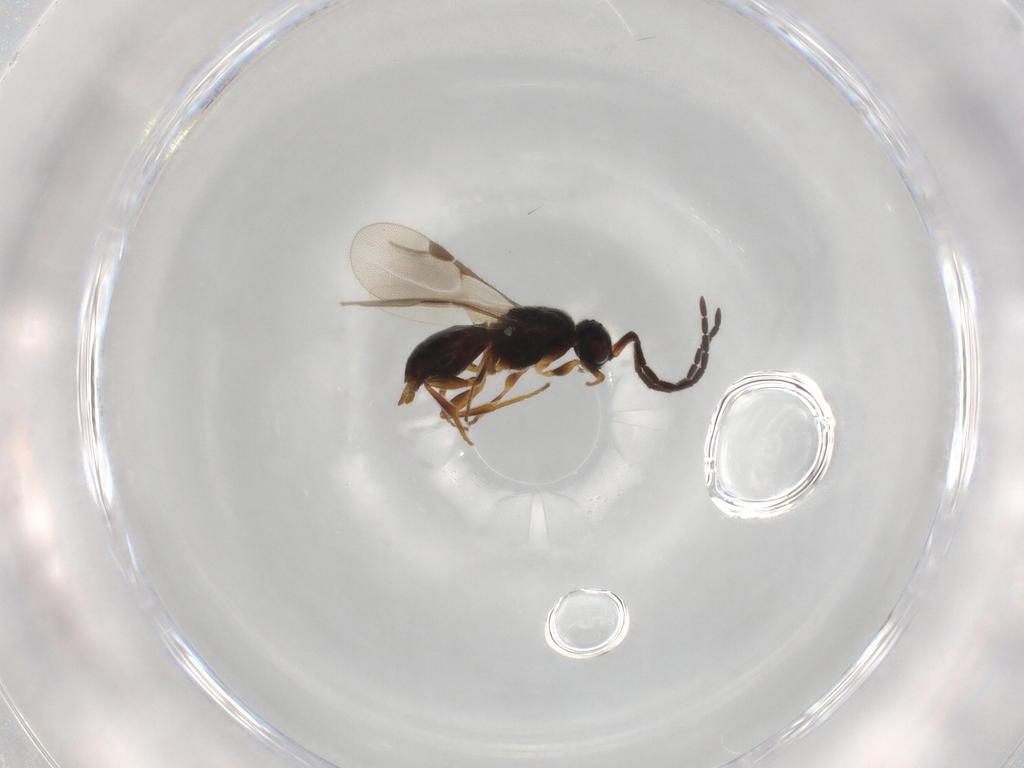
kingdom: Animalia
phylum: Arthropoda
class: Insecta
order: Hymenoptera
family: Megaspilidae
